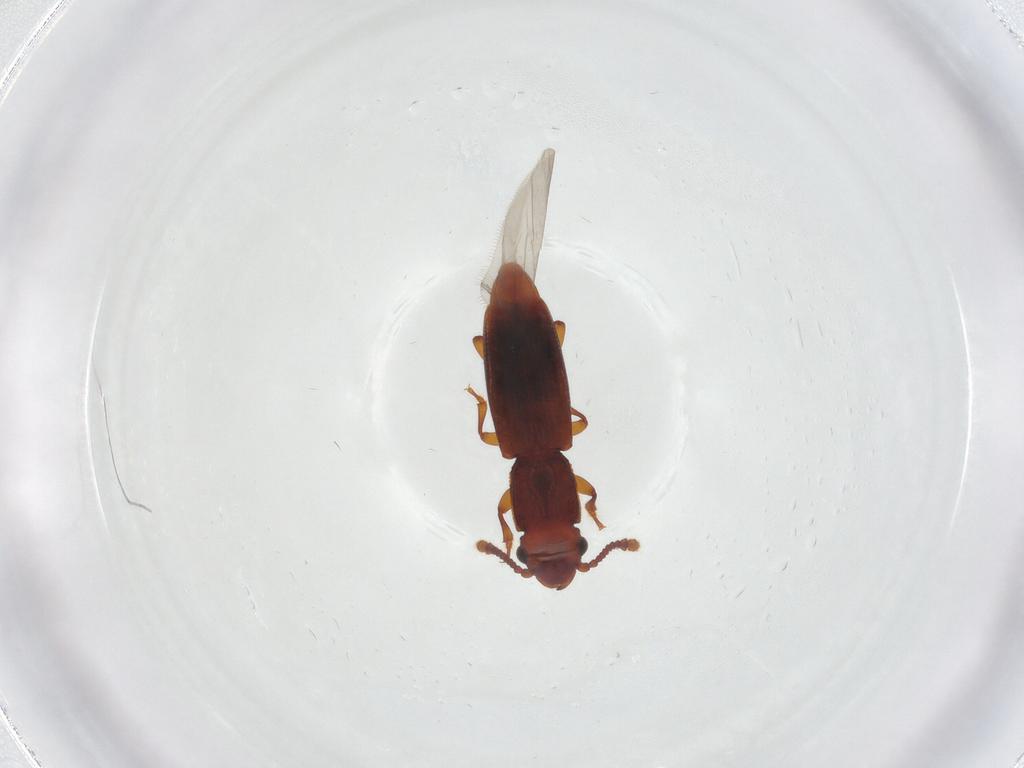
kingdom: Animalia
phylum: Arthropoda
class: Insecta
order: Coleoptera
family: Monotomidae
